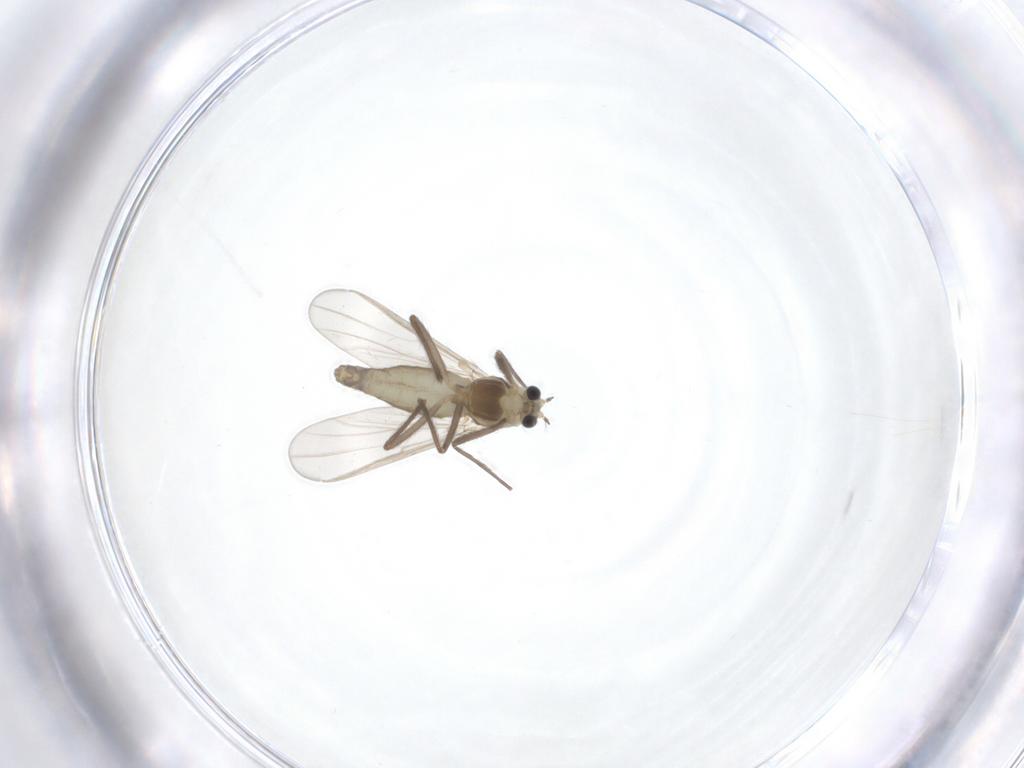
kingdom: Animalia
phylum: Arthropoda
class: Insecta
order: Diptera
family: Chironomidae
